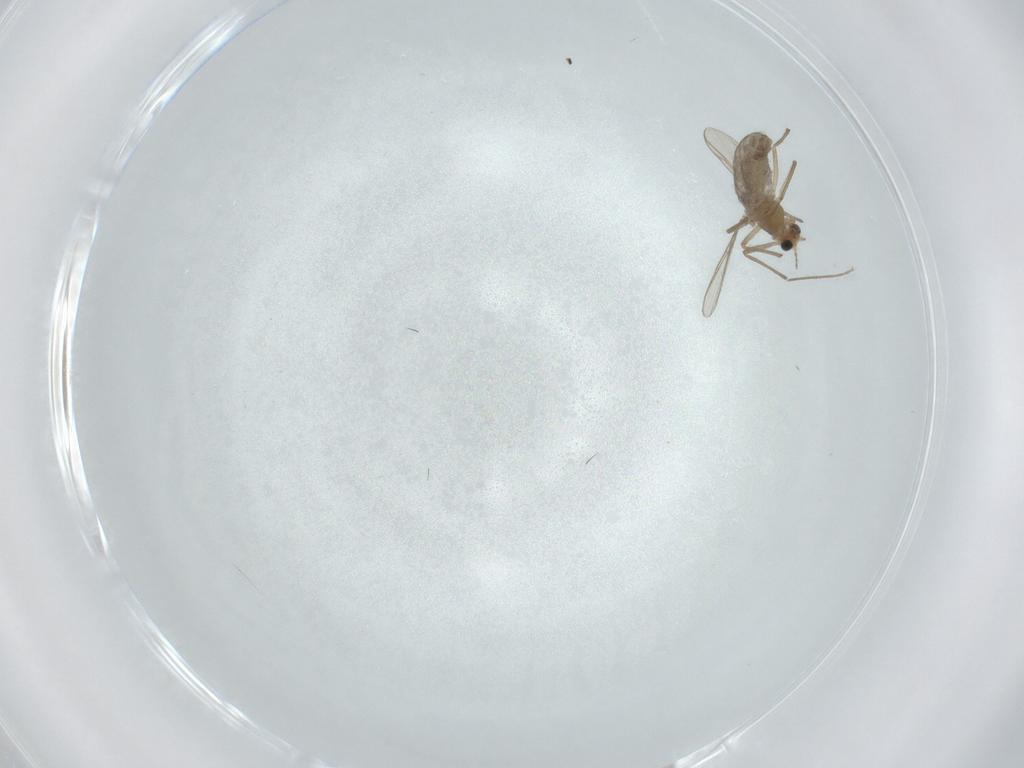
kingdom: Animalia
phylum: Arthropoda
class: Insecta
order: Diptera
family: Chironomidae
